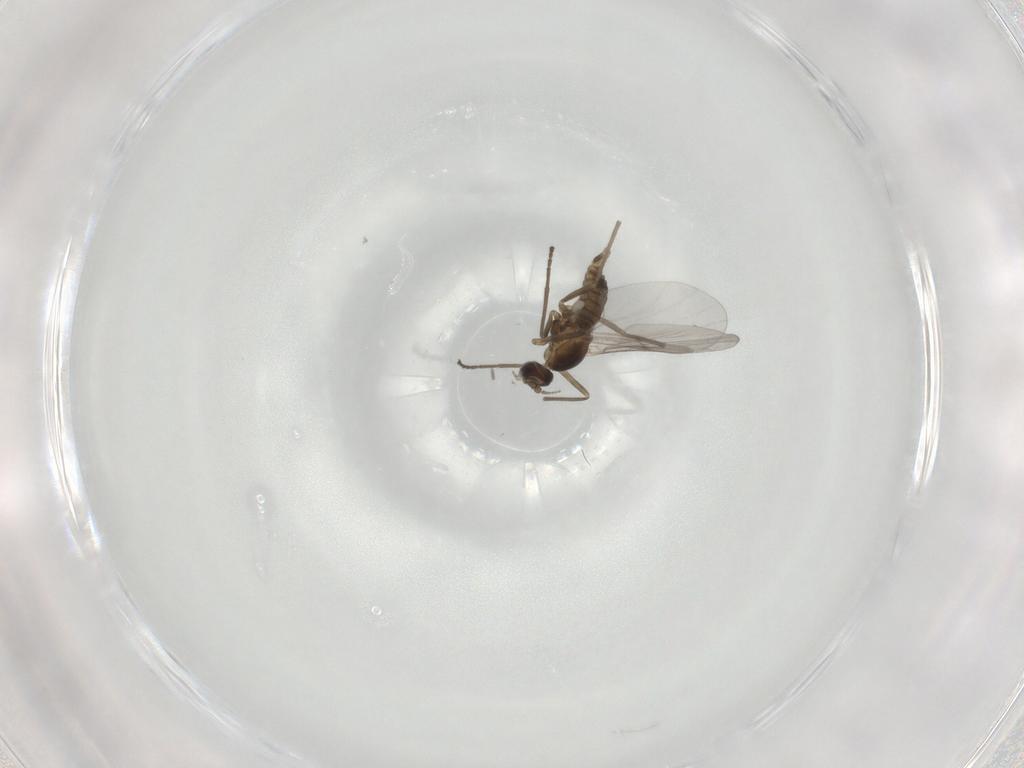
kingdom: Animalia
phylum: Arthropoda
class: Insecta
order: Diptera
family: Cecidomyiidae
